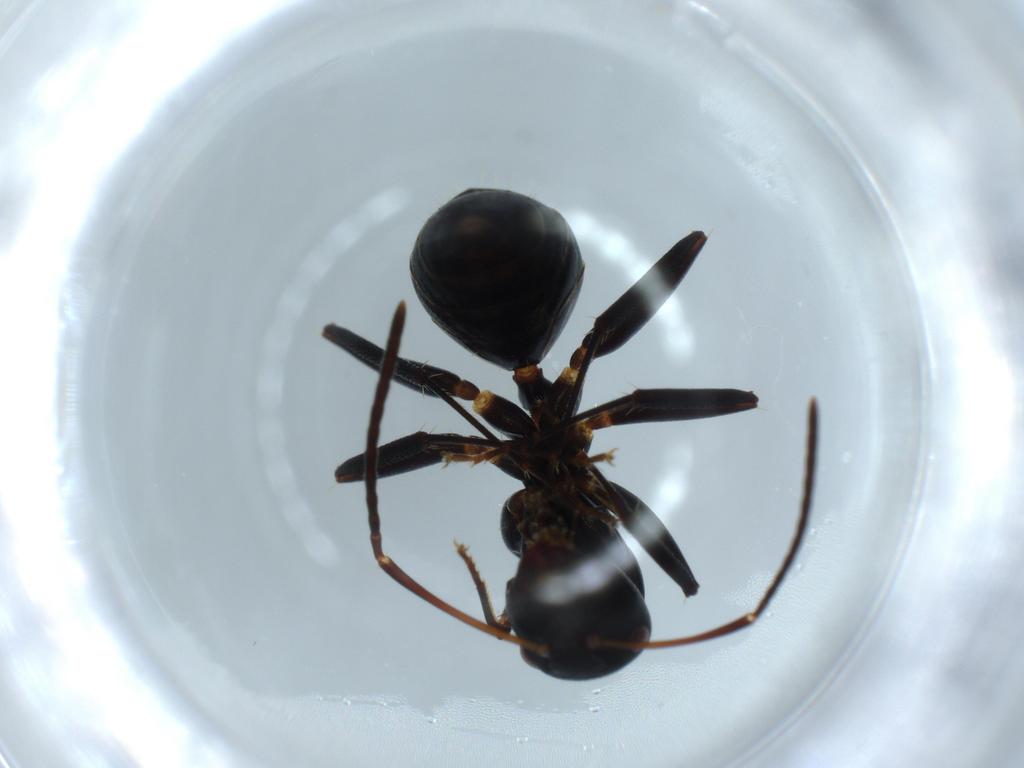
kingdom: Animalia
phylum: Arthropoda
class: Insecta
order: Hymenoptera
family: Formicidae
